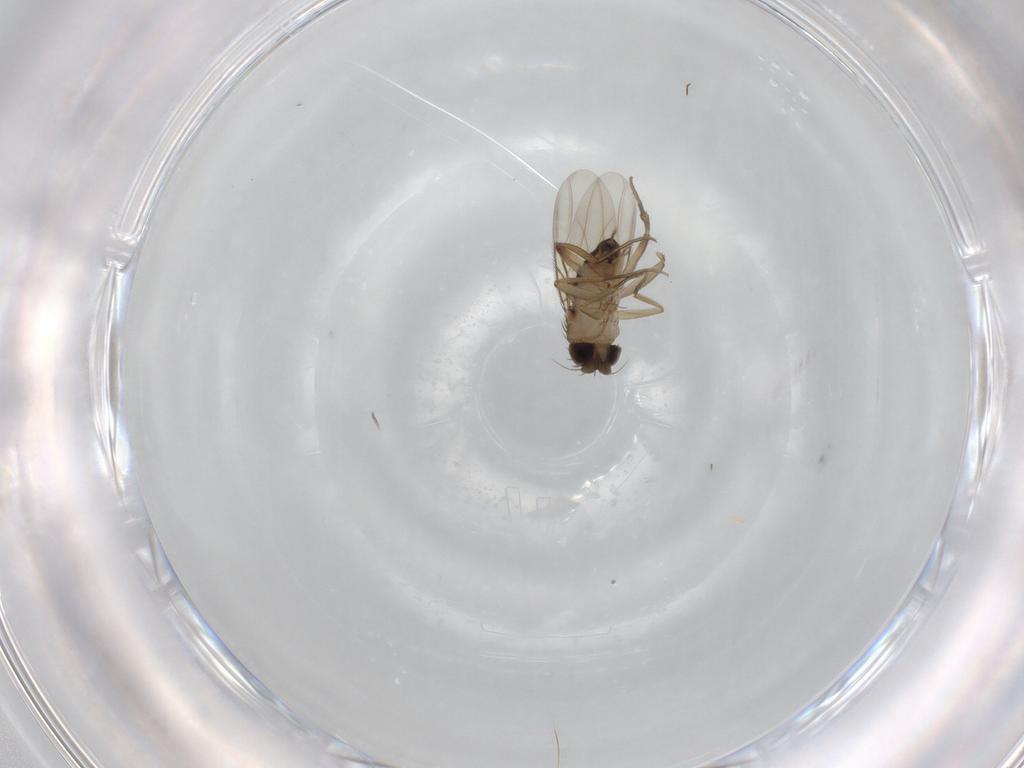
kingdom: Animalia
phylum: Arthropoda
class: Insecta
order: Diptera
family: Phoridae
